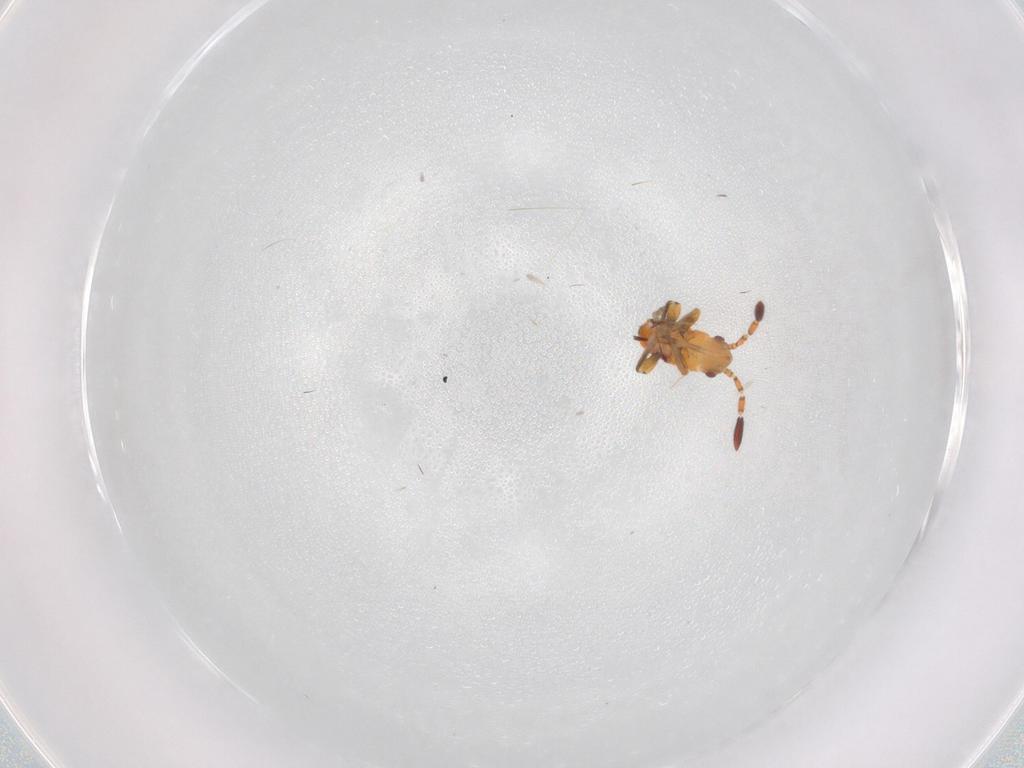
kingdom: Animalia
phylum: Arthropoda
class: Insecta
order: Hemiptera
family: Rhyparochromidae
